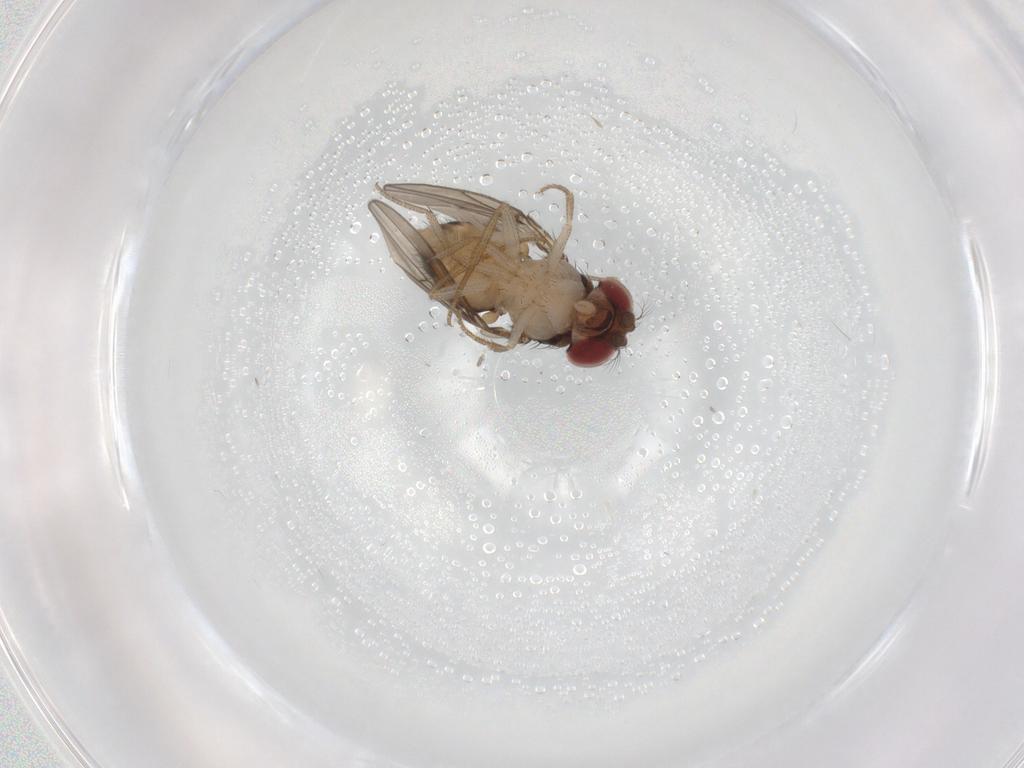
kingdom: Animalia
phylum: Arthropoda
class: Insecta
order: Diptera
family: Drosophilidae
